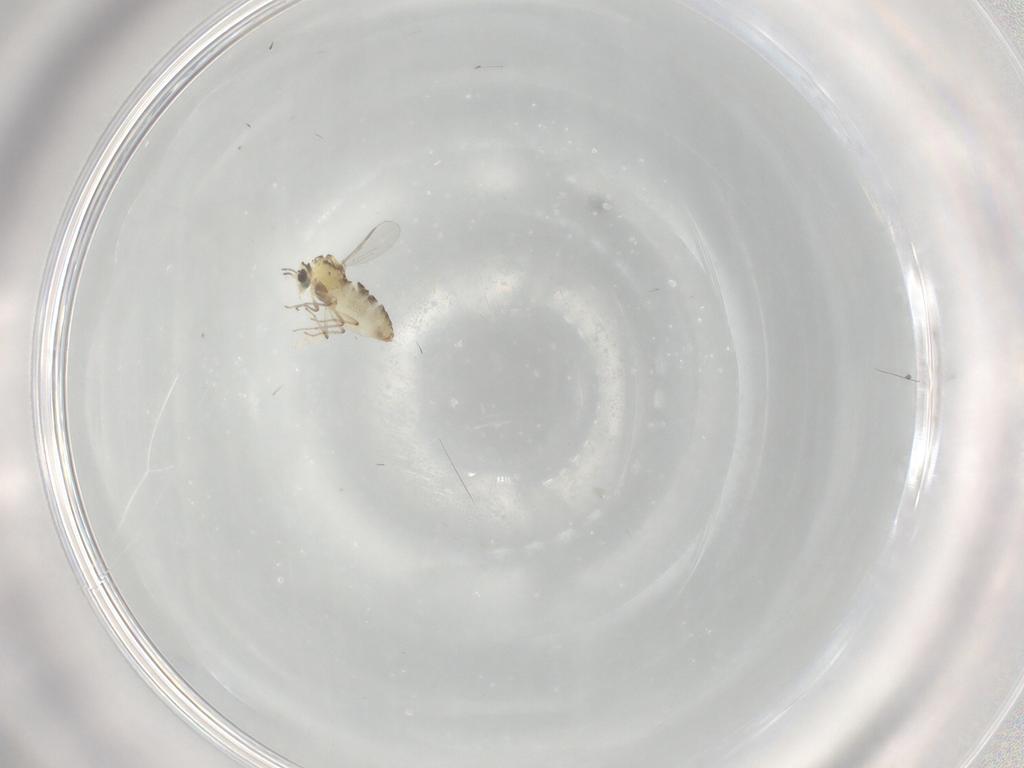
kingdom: Animalia
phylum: Arthropoda
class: Insecta
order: Diptera
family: Chironomidae
